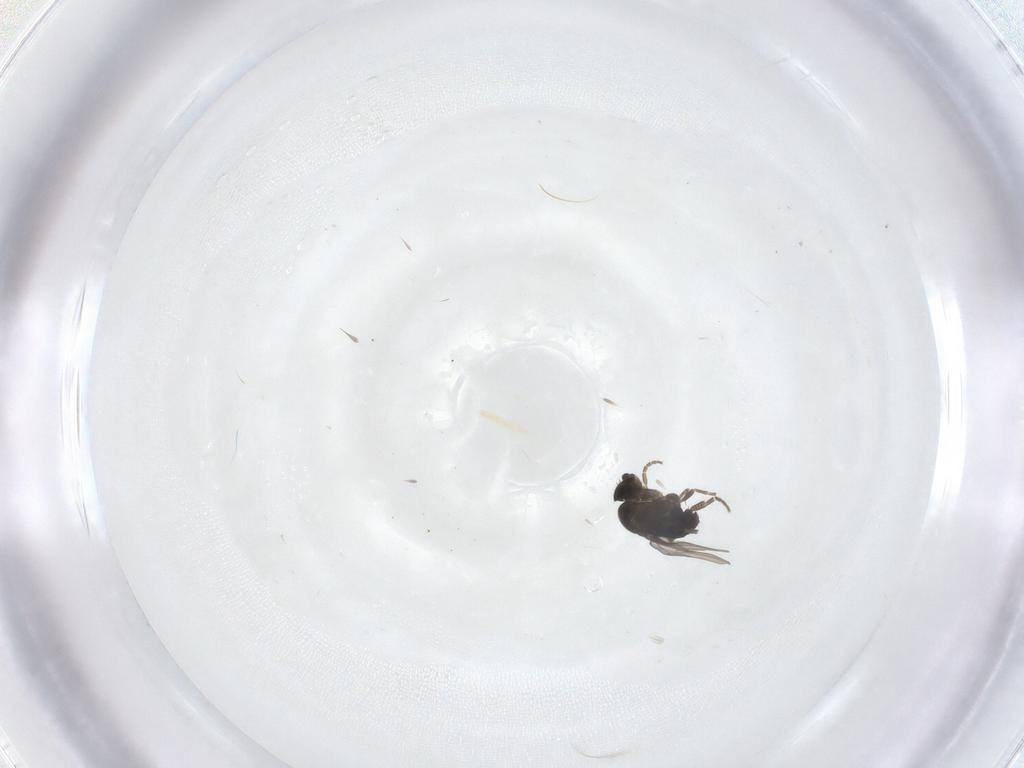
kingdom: Animalia
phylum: Arthropoda
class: Insecta
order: Diptera
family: Phoridae
